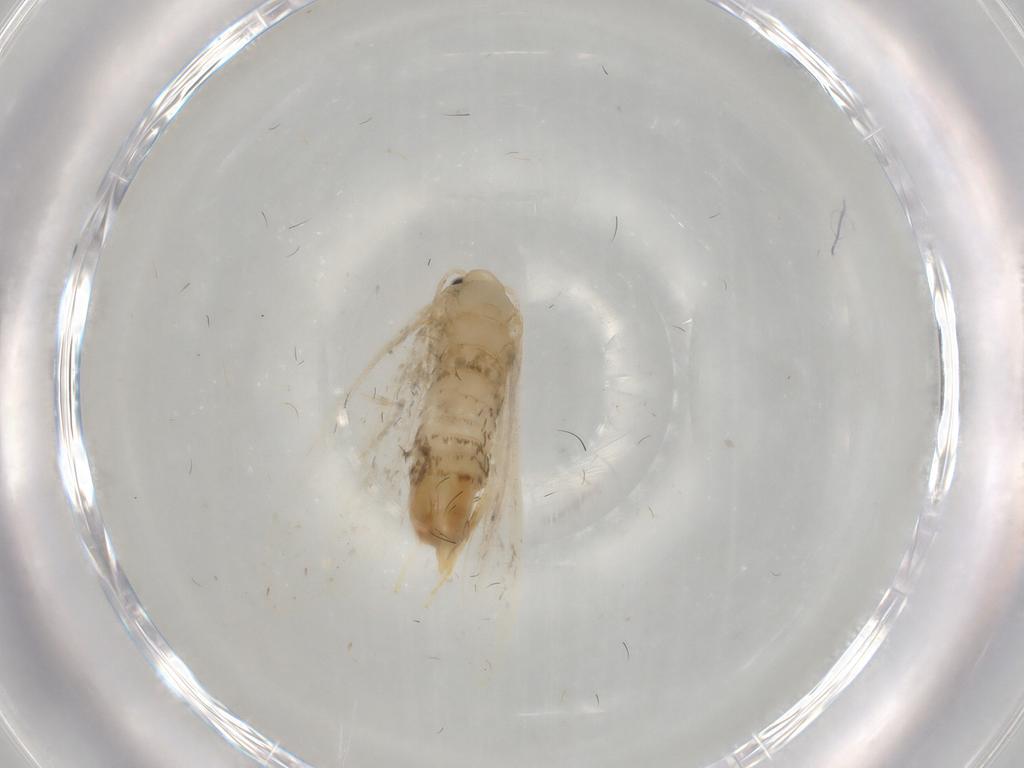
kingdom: Animalia
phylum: Arthropoda
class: Insecta
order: Lepidoptera
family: Psychidae
